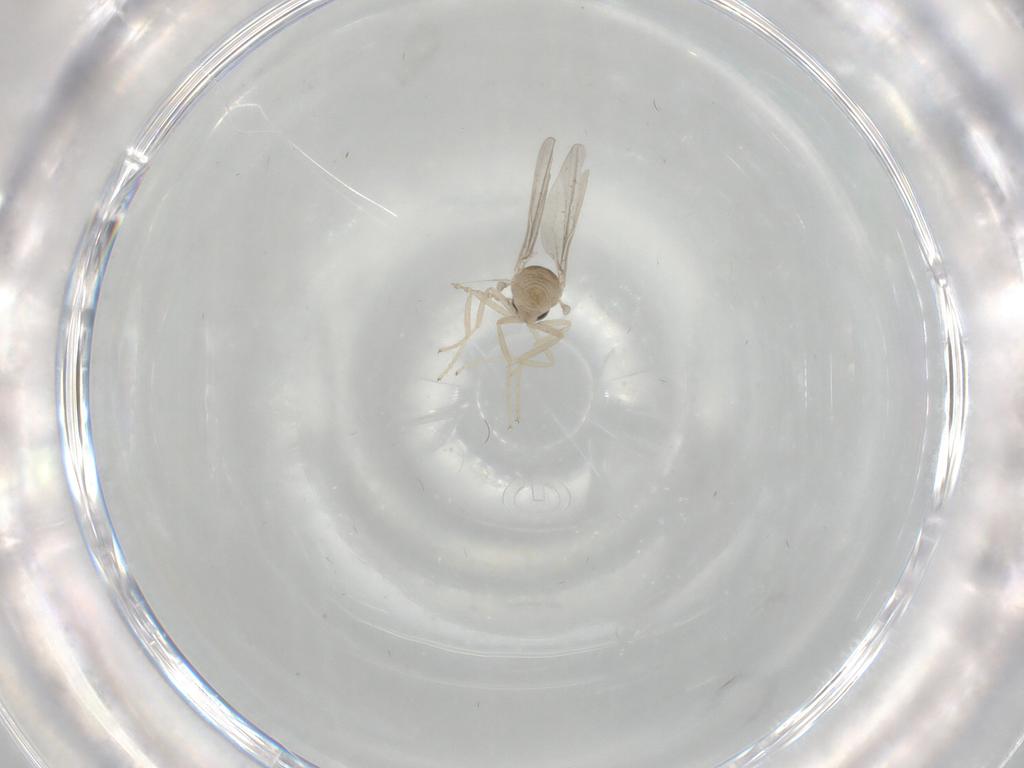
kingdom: Animalia
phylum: Arthropoda
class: Insecta
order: Diptera
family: Cecidomyiidae
